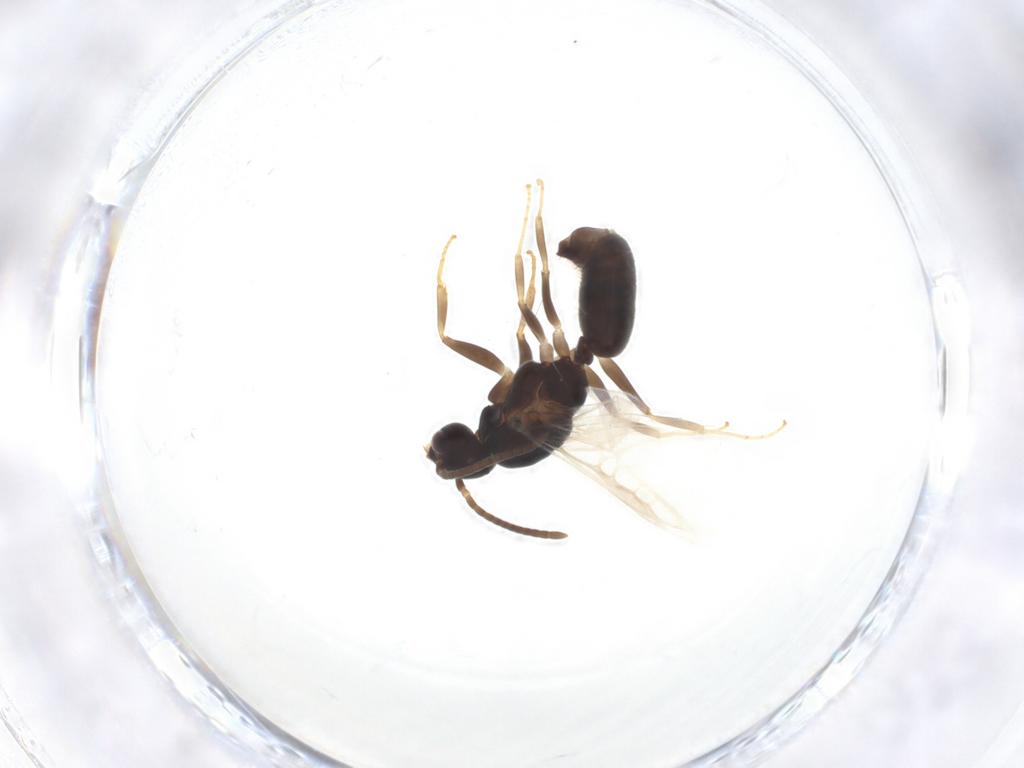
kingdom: Animalia
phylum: Arthropoda
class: Insecta
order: Hymenoptera
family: Formicidae
